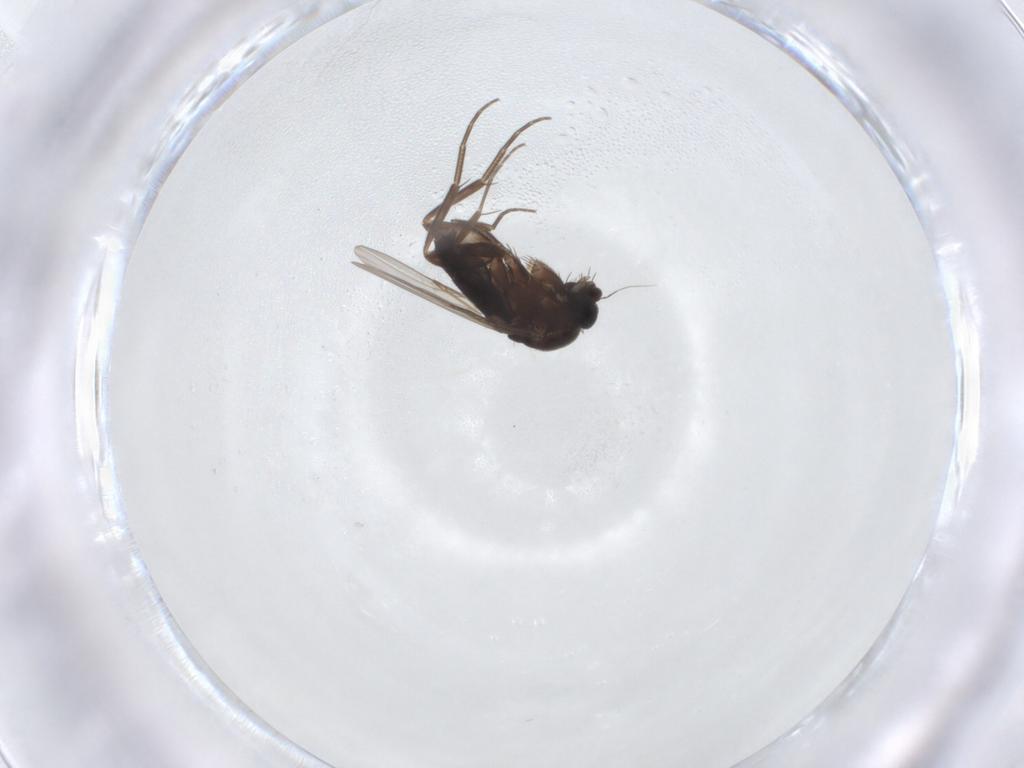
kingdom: Animalia
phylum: Arthropoda
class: Insecta
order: Diptera
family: Phoridae
